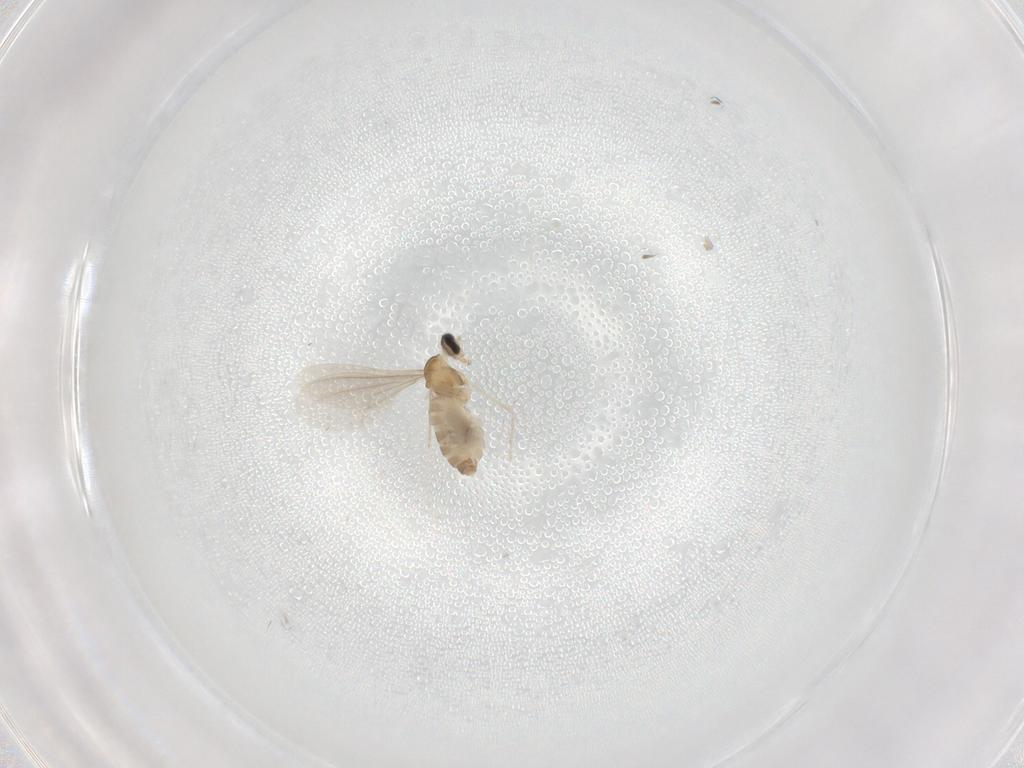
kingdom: Animalia
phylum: Arthropoda
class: Insecta
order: Diptera
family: Cecidomyiidae
